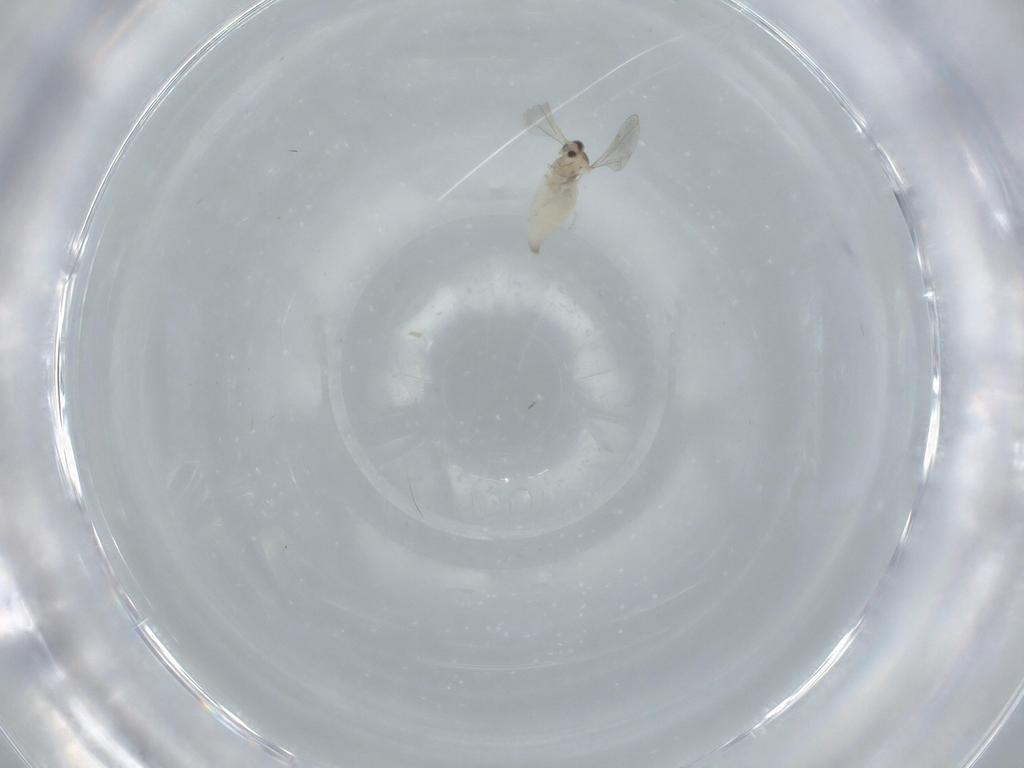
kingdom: Animalia
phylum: Arthropoda
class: Insecta
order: Diptera
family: Cecidomyiidae
